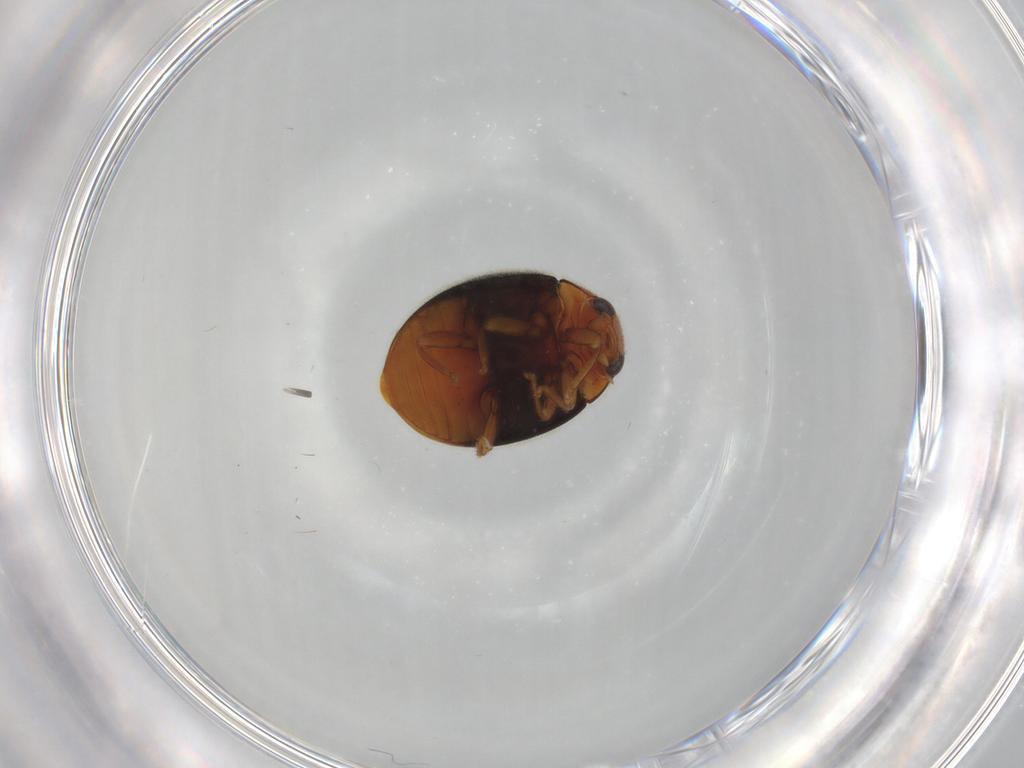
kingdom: Animalia
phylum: Arthropoda
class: Insecta
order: Coleoptera
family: Coccinellidae
